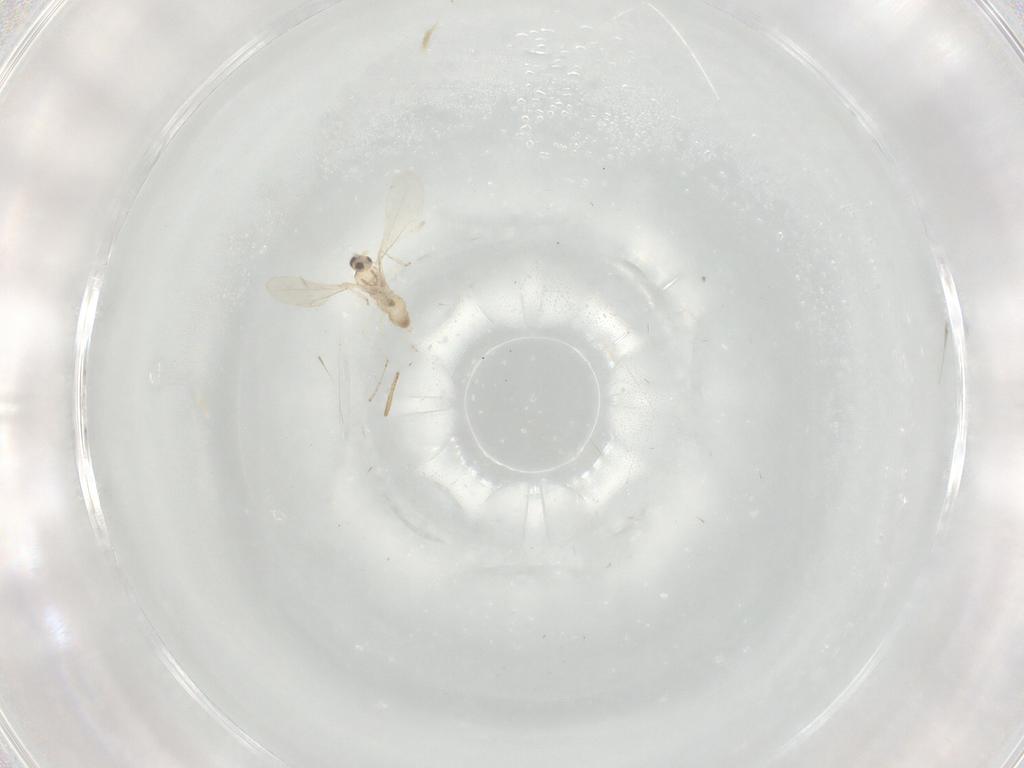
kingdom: Animalia
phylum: Arthropoda
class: Insecta
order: Diptera
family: Cecidomyiidae
